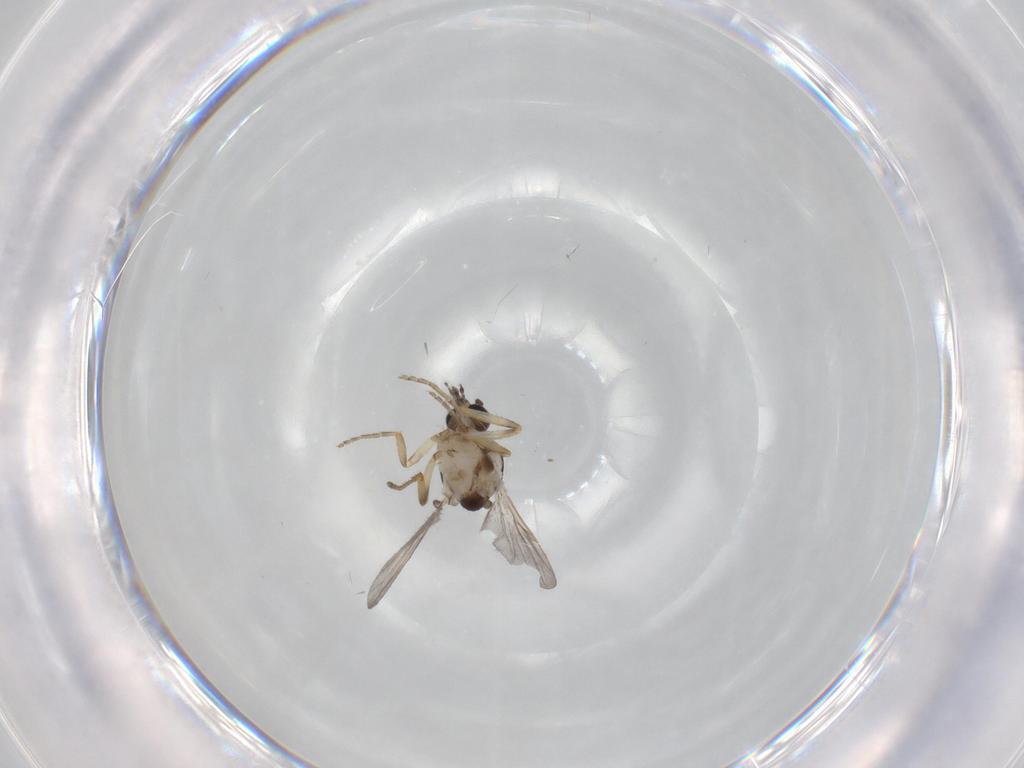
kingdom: Animalia
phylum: Arthropoda
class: Insecta
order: Diptera
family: Ceratopogonidae
